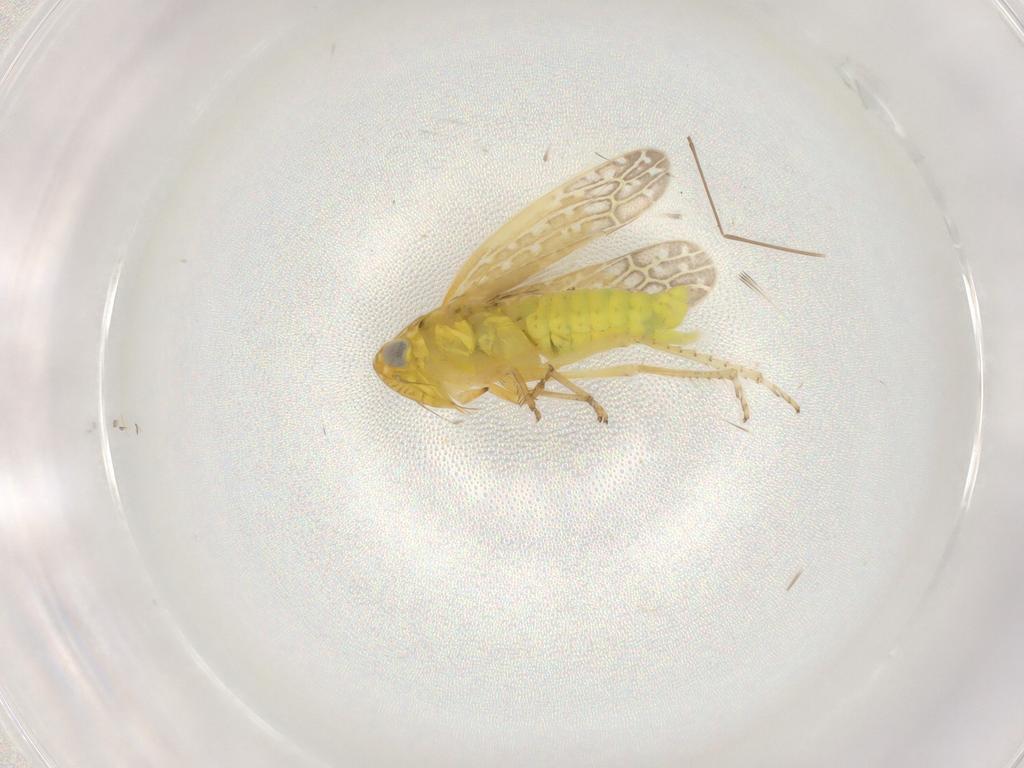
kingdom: Animalia
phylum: Arthropoda
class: Insecta
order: Hemiptera
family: Cicadellidae
